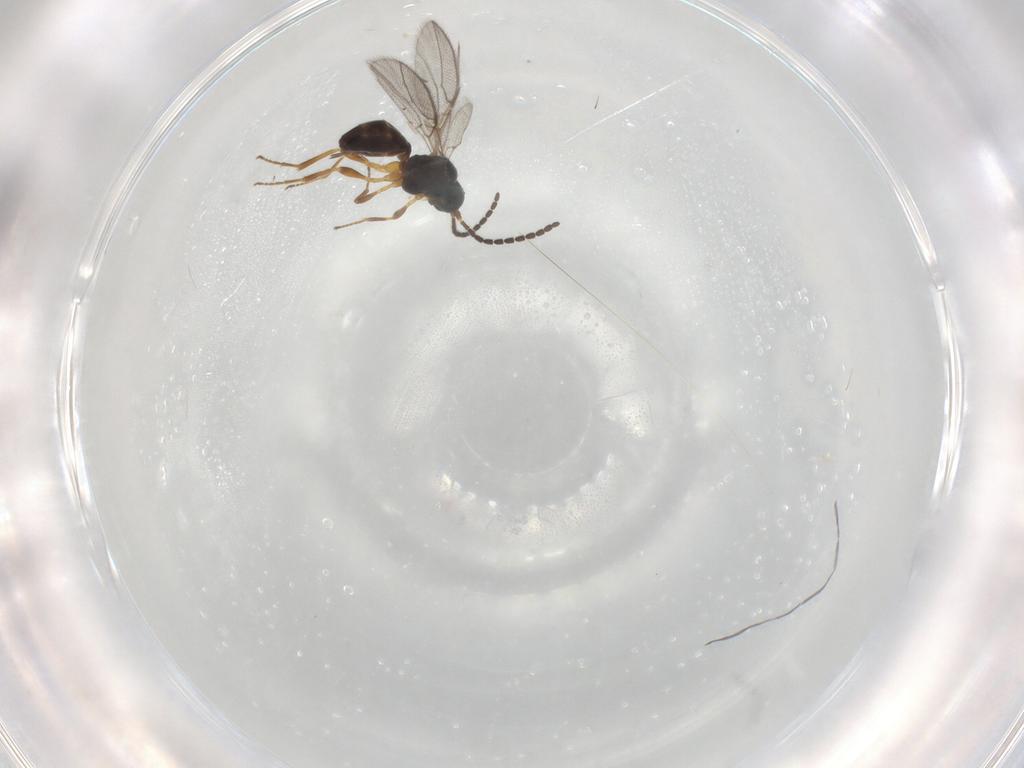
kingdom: Animalia
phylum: Arthropoda
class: Insecta
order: Hymenoptera
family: Braconidae
